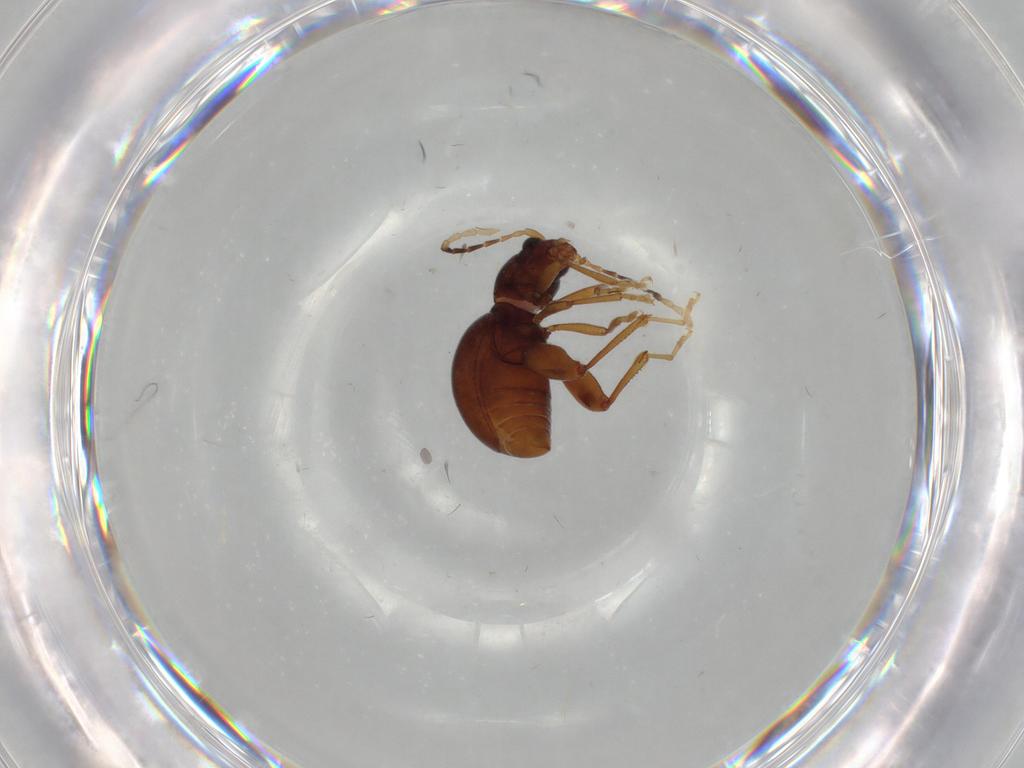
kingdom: Animalia
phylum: Arthropoda
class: Insecta
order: Coleoptera
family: Chrysomelidae
